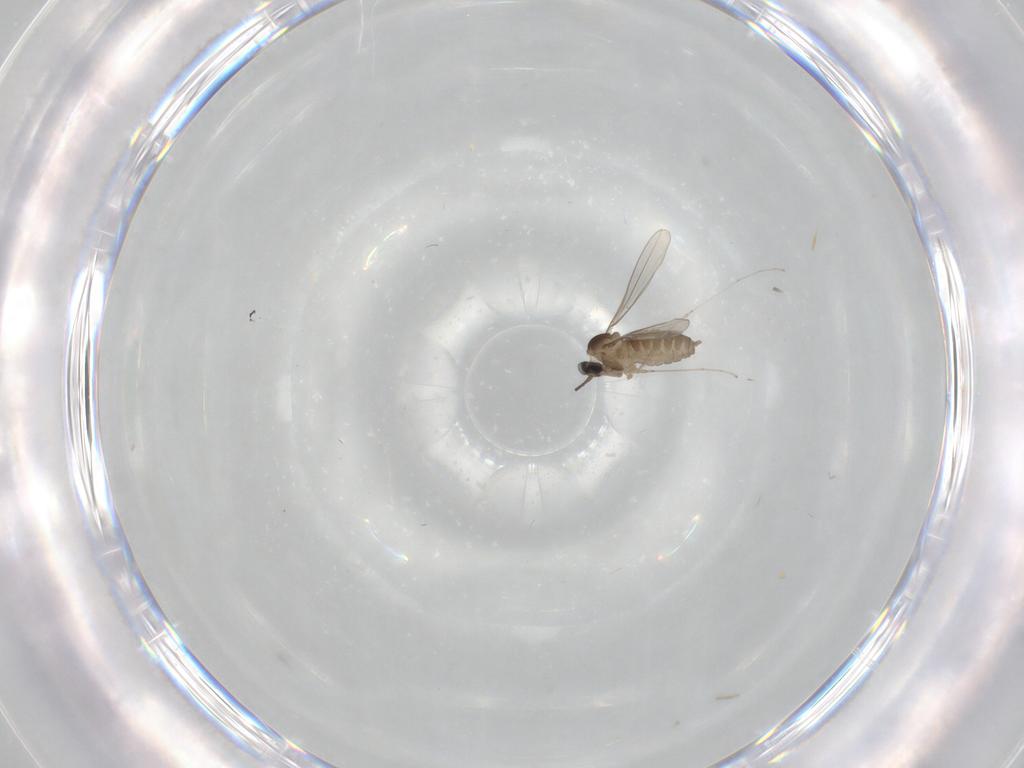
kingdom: Animalia
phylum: Arthropoda
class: Insecta
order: Diptera
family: Cecidomyiidae
